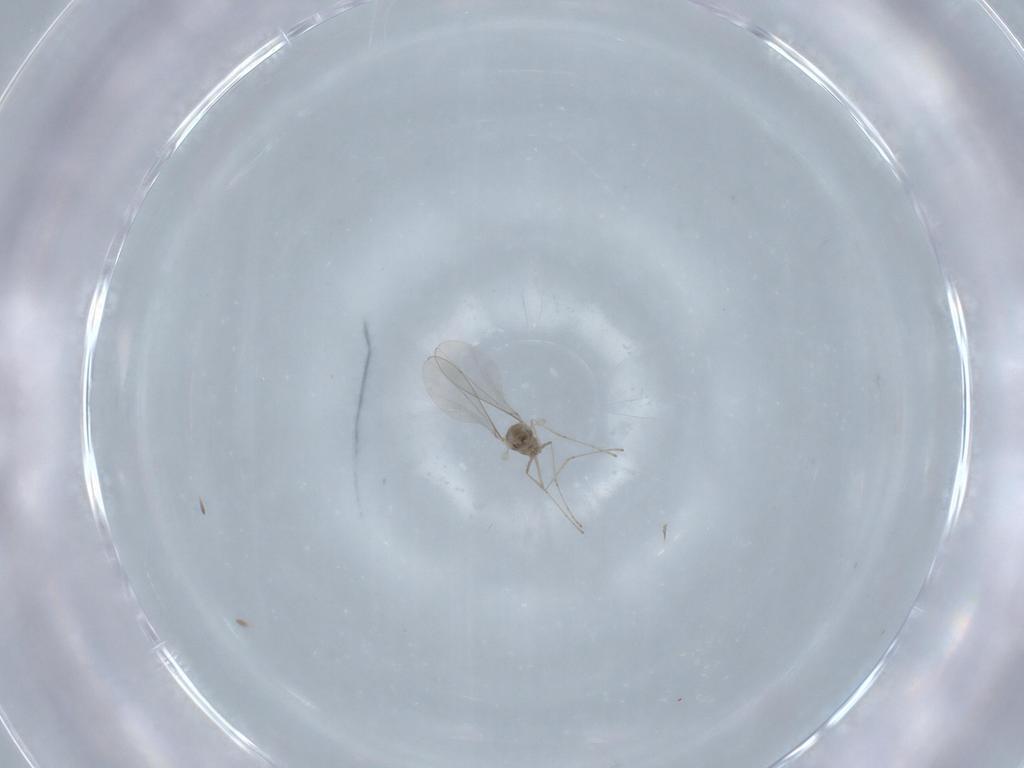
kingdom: Animalia
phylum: Arthropoda
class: Insecta
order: Diptera
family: Cecidomyiidae
